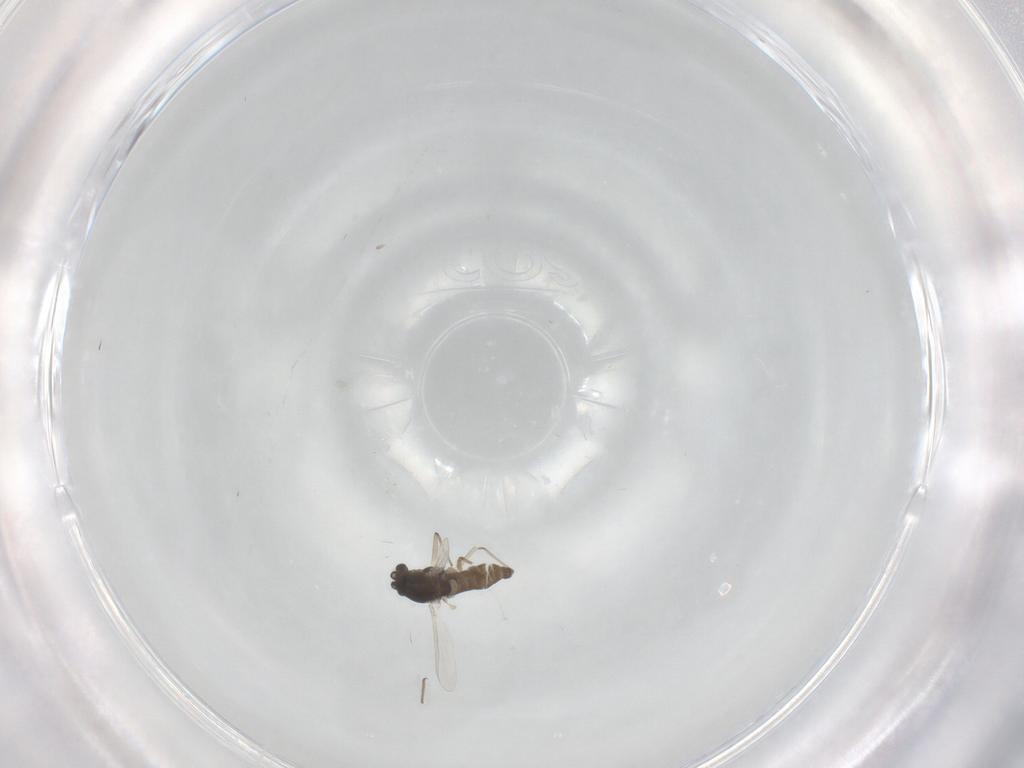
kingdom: Animalia
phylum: Arthropoda
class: Insecta
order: Diptera
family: Chironomidae
